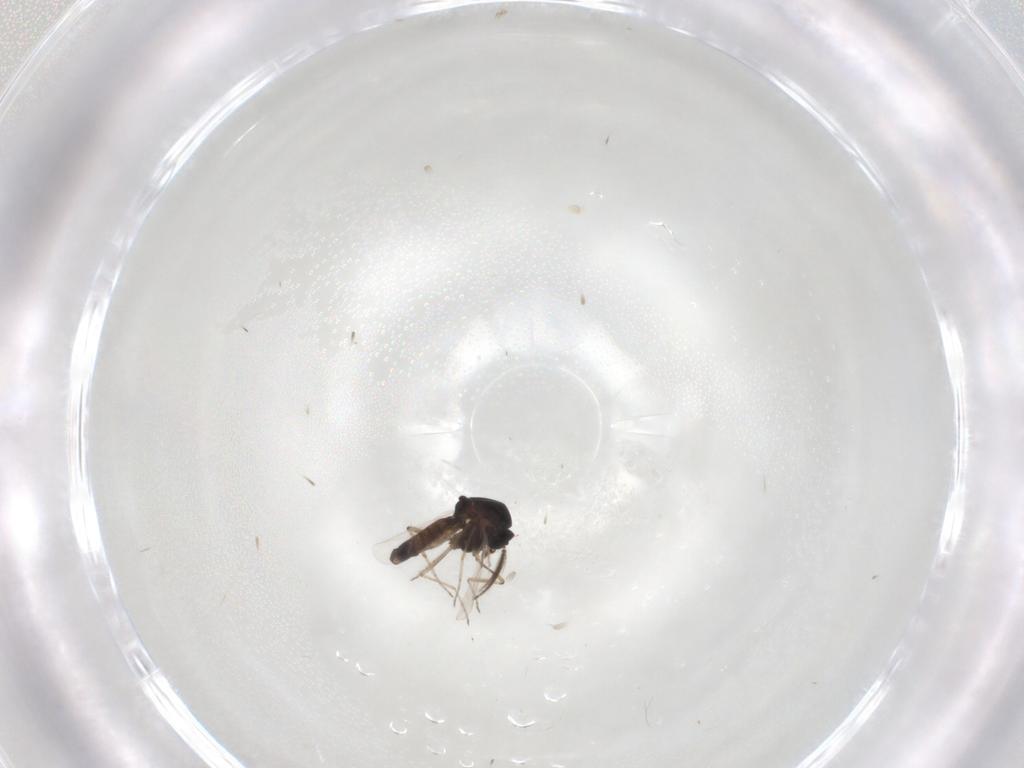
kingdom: Animalia
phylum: Arthropoda
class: Insecta
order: Diptera
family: Ceratopogonidae
